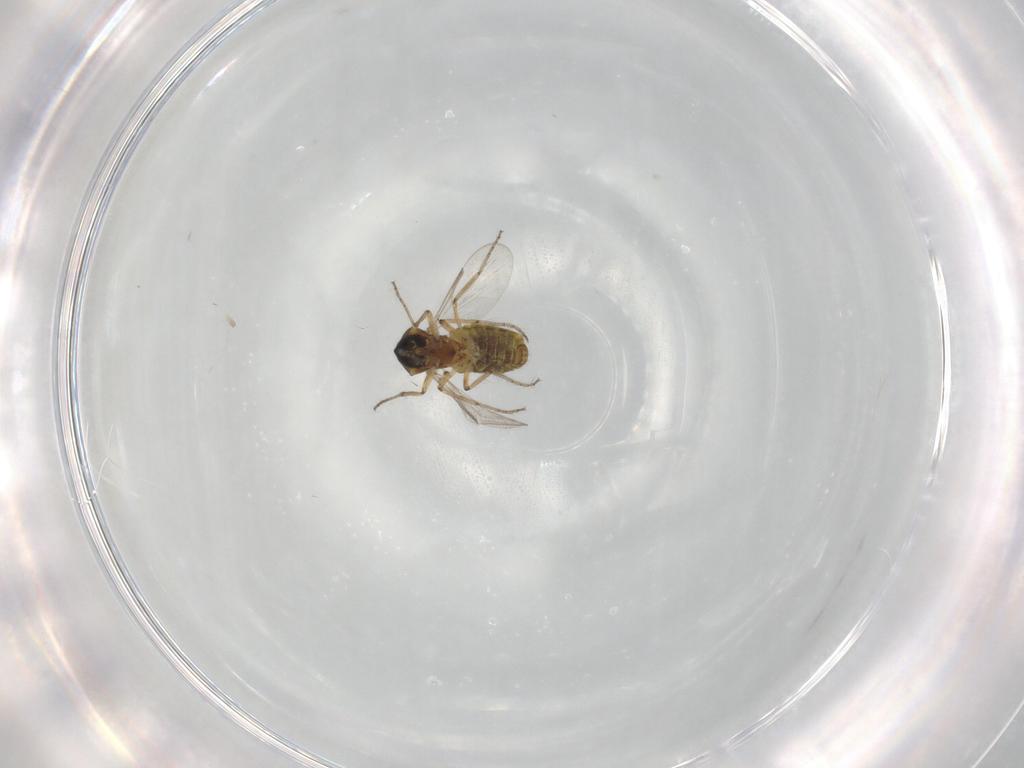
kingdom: Animalia
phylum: Arthropoda
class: Insecta
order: Diptera
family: Ceratopogonidae
